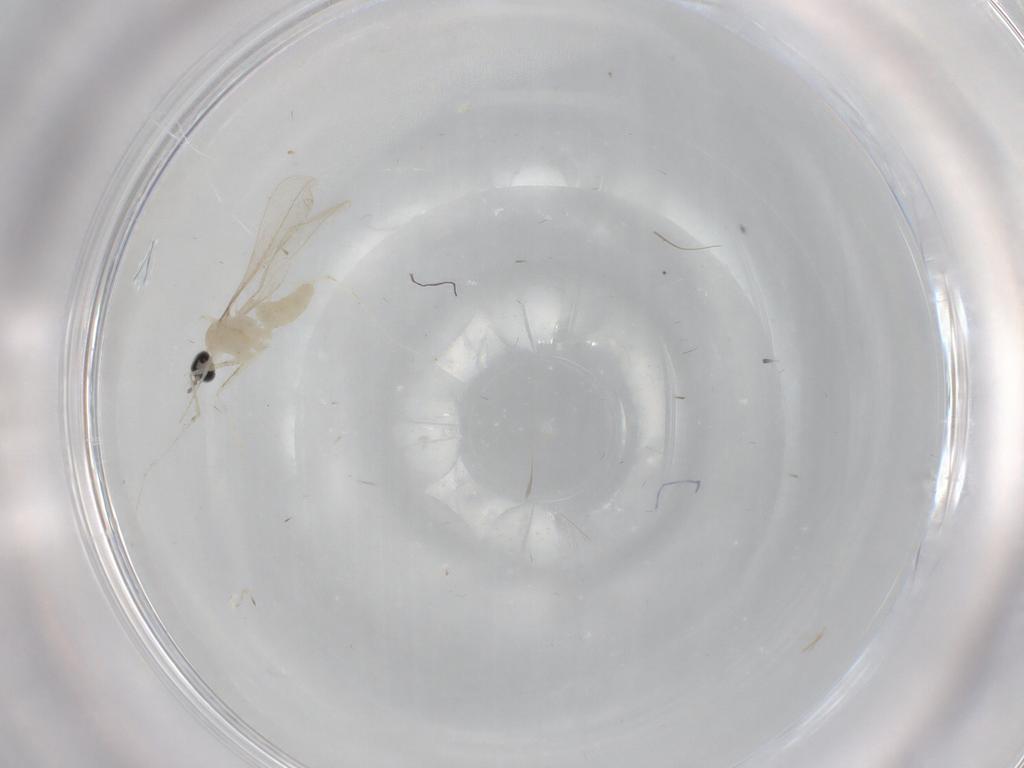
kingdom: Animalia
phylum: Arthropoda
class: Insecta
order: Diptera
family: Cecidomyiidae
